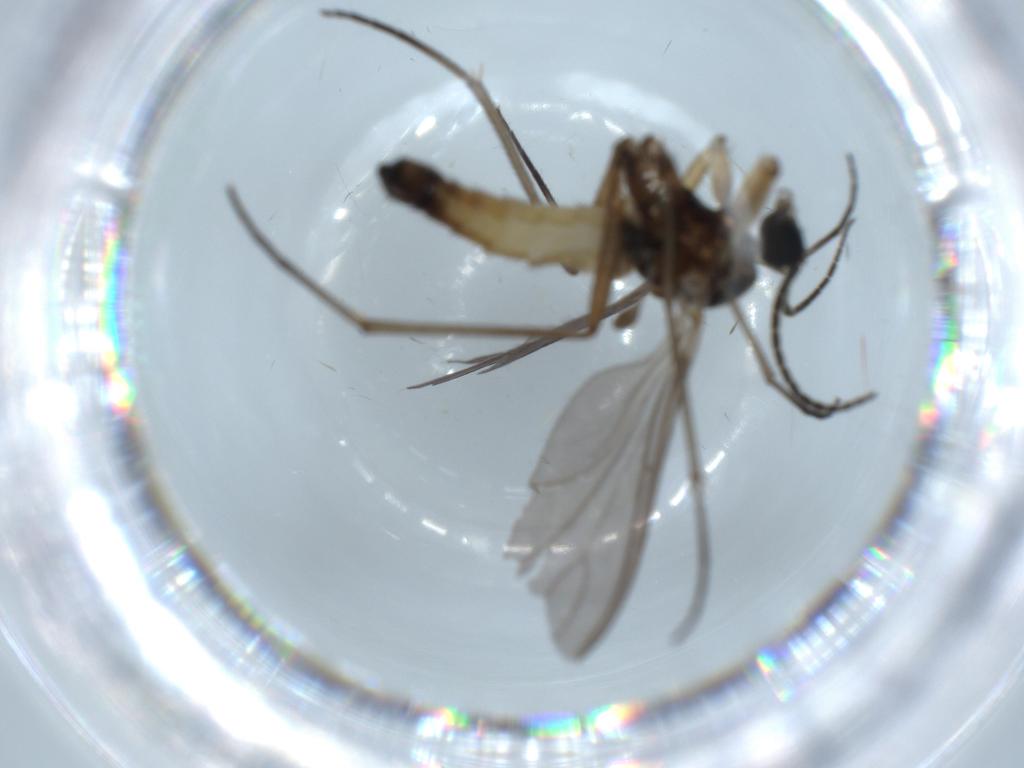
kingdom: Animalia
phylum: Arthropoda
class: Insecta
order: Diptera
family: Sciaridae
